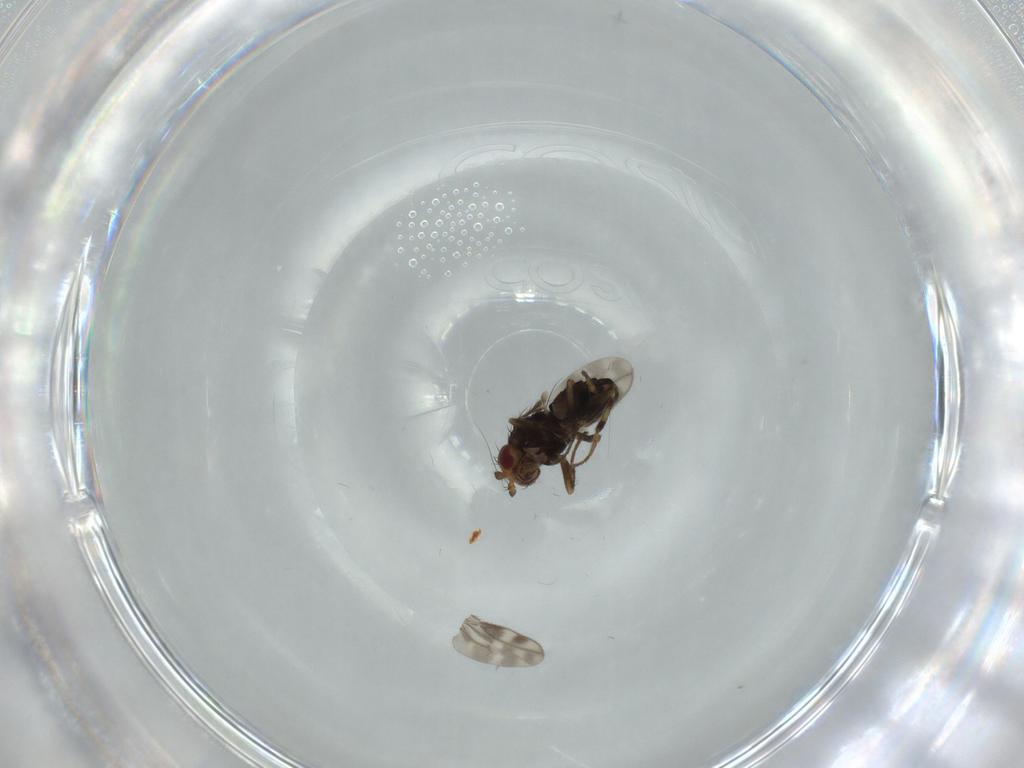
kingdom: Animalia
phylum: Arthropoda
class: Insecta
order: Diptera
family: Sphaeroceridae
